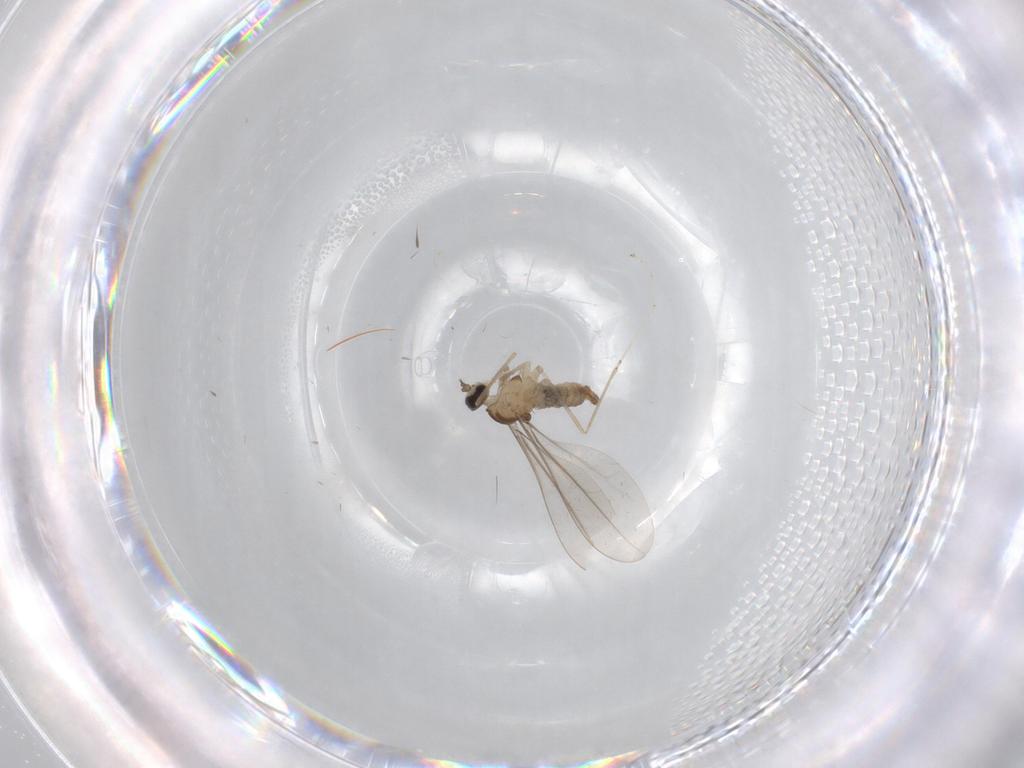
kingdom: Animalia
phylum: Arthropoda
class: Insecta
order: Diptera
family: Cecidomyiidae
